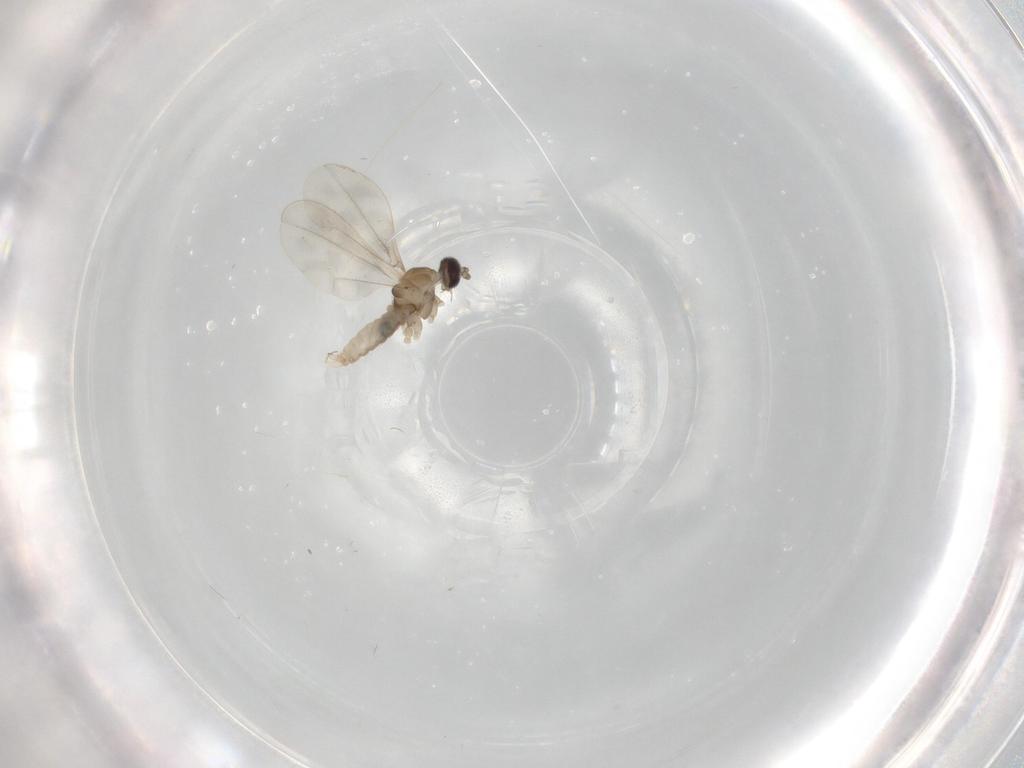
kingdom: Animalia
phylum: Arthropoda
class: Insecta
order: Diptera
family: Cecidomyiidae
